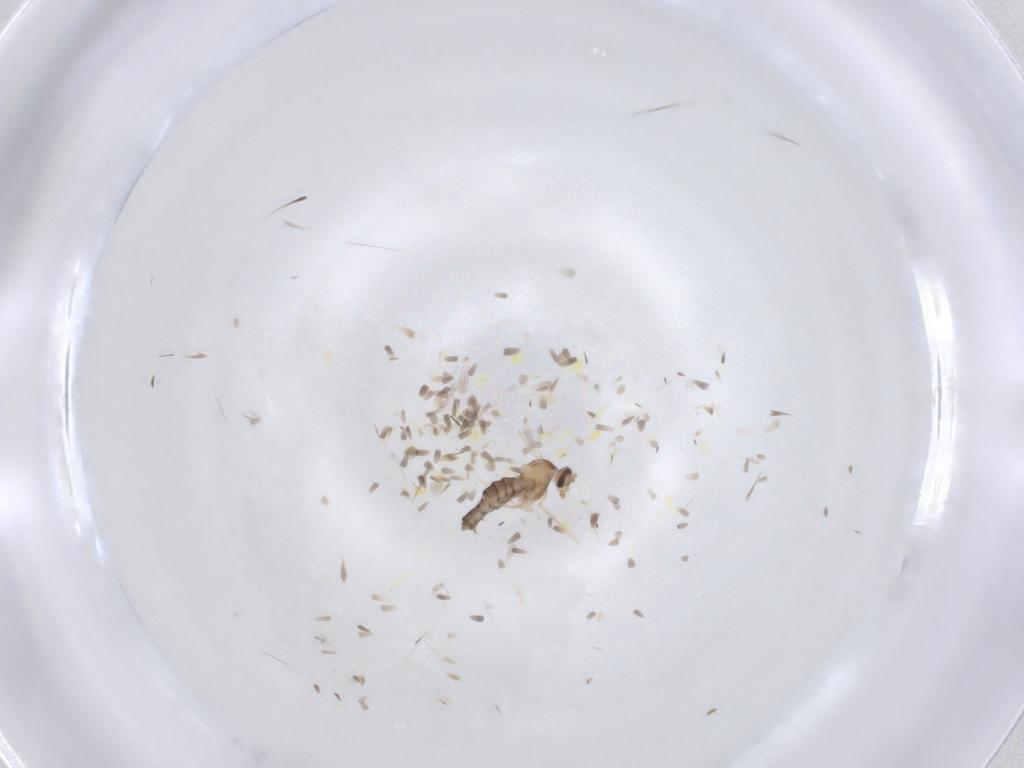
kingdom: Animalia
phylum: Arthropoda
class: Insecta
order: Diptera
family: Cecidomyiidae
